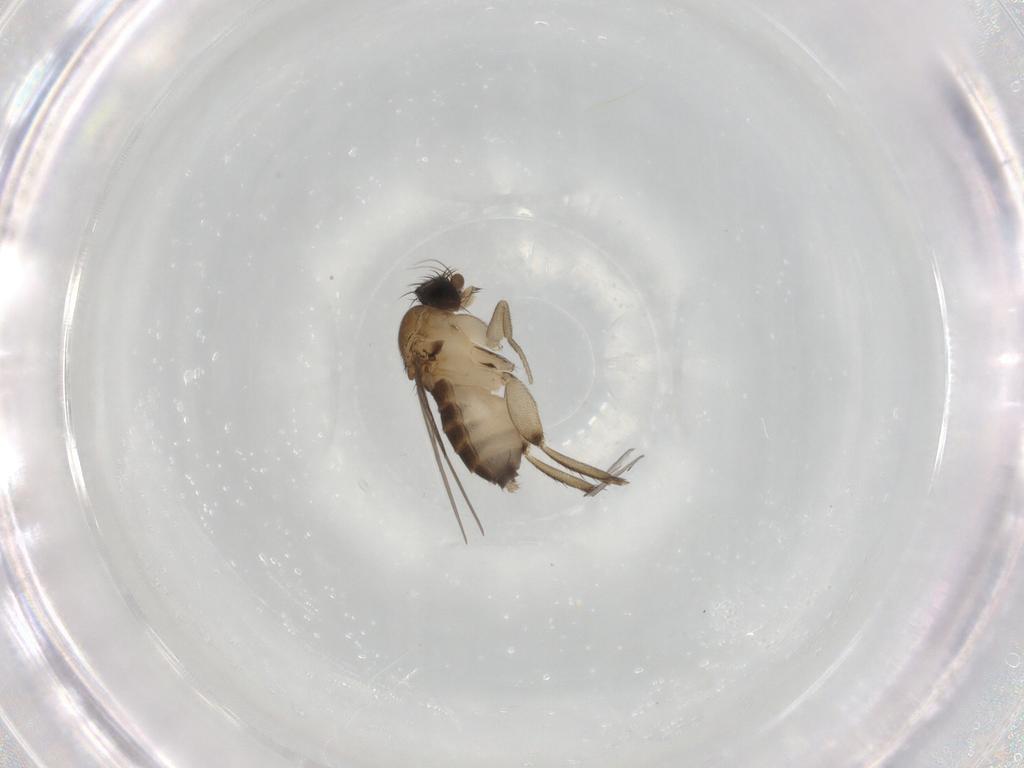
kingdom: Animalia
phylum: Arthropoda
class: Insecta
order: Diptera
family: Phoridae
